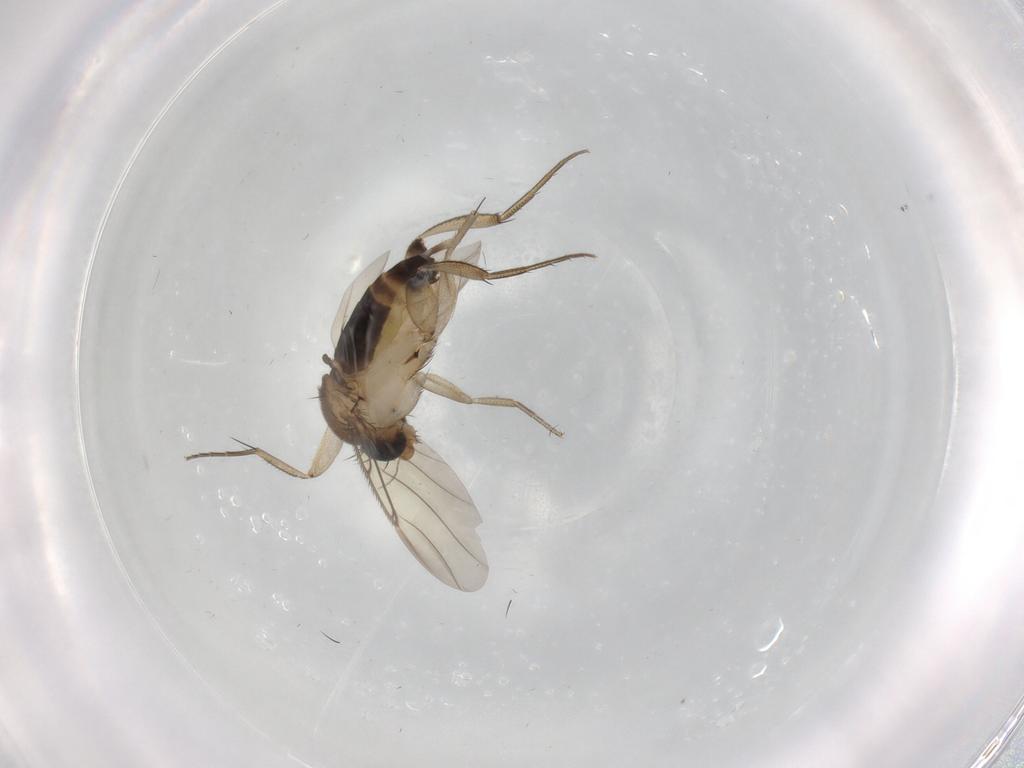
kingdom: Animalia
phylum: Arthropoda
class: Insecta
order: Diptera
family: Phoridae
